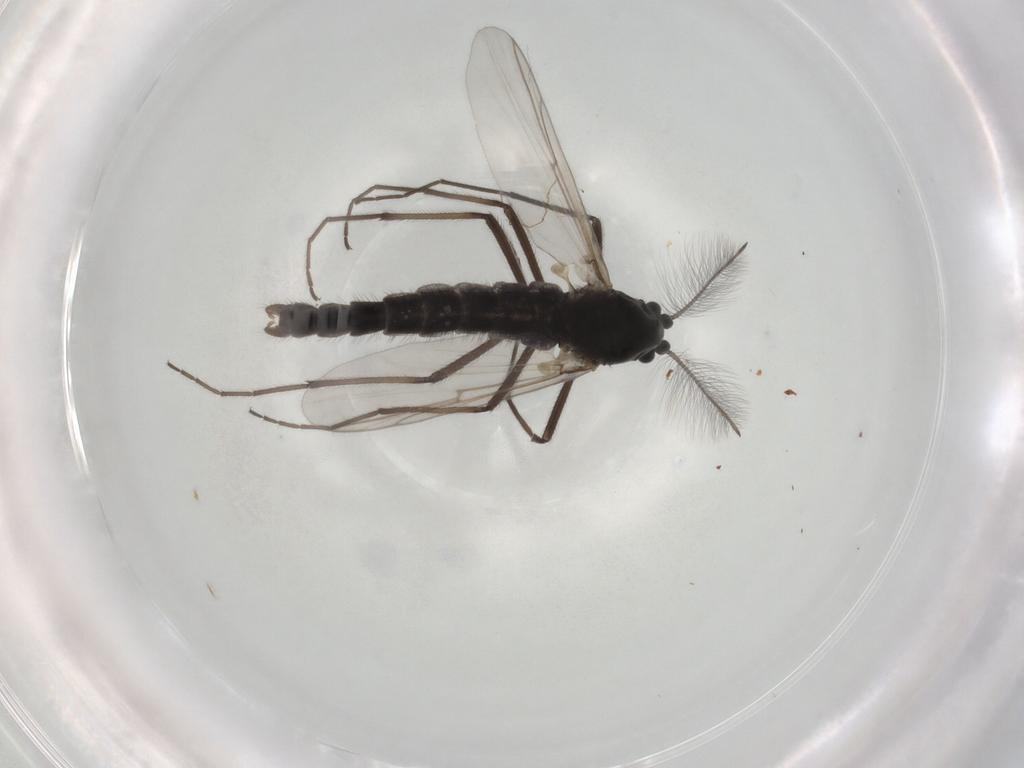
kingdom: Animalia
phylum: Arthropoda
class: Insecta
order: Diptera
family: Chironomidae
